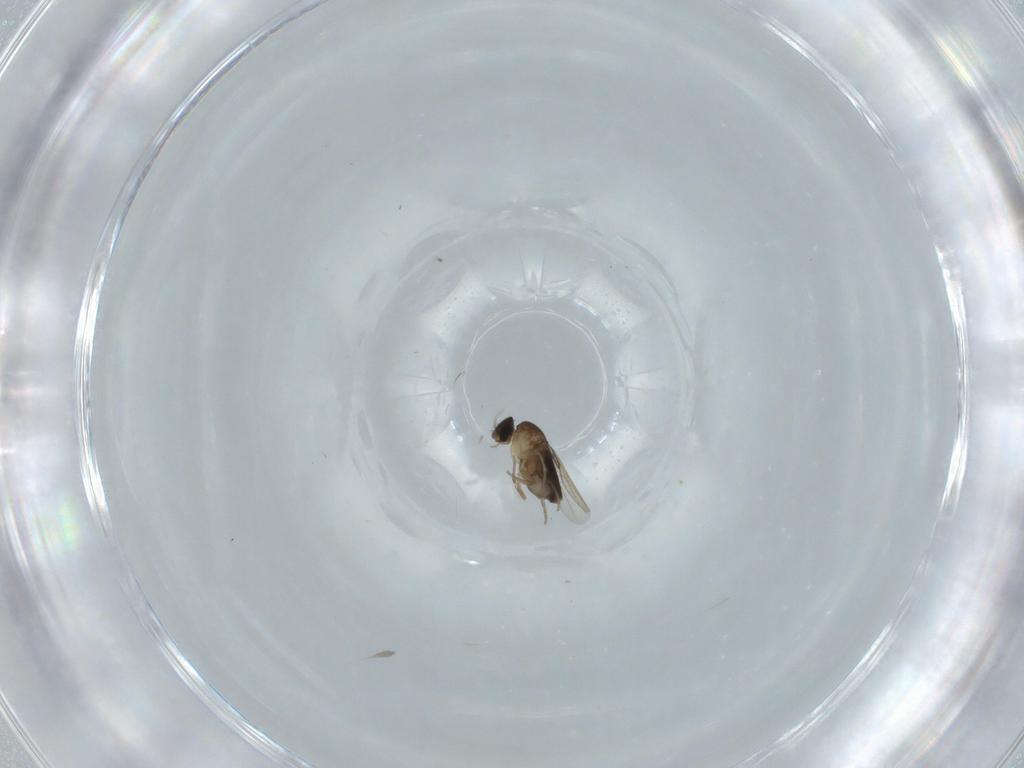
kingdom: Animalia
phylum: Arthropoda
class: Insecta
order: Diptera
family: Phoridae
